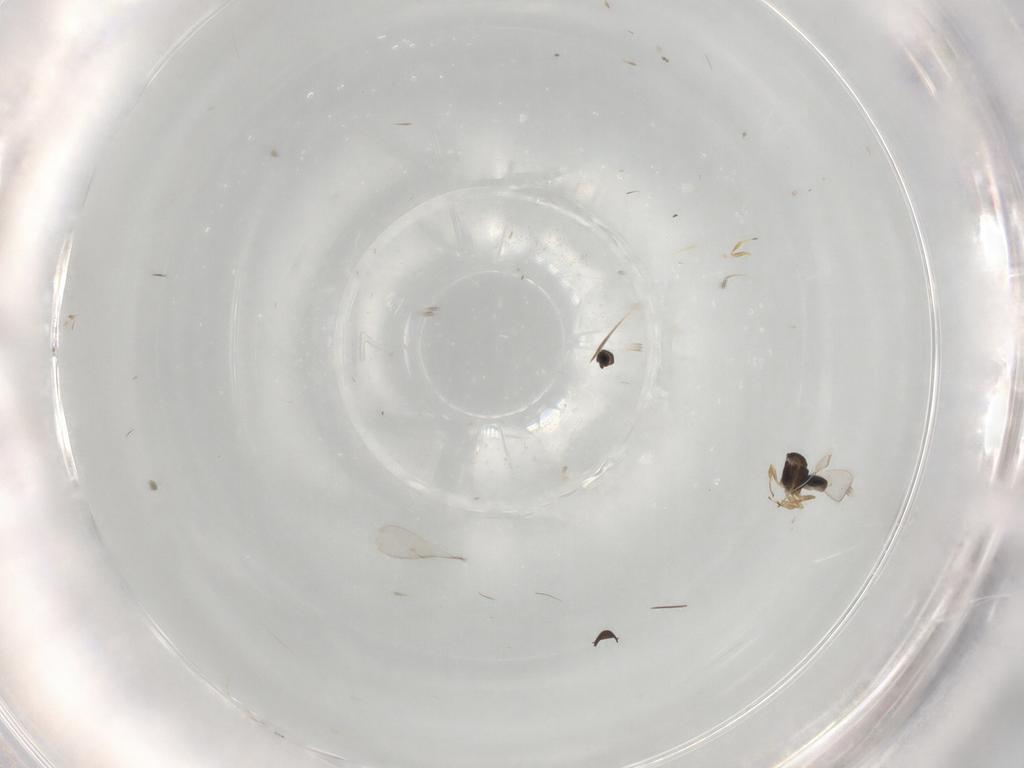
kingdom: Animalia
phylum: Arthropoda
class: Insecta
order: Hymenoptera
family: Scelionidae
